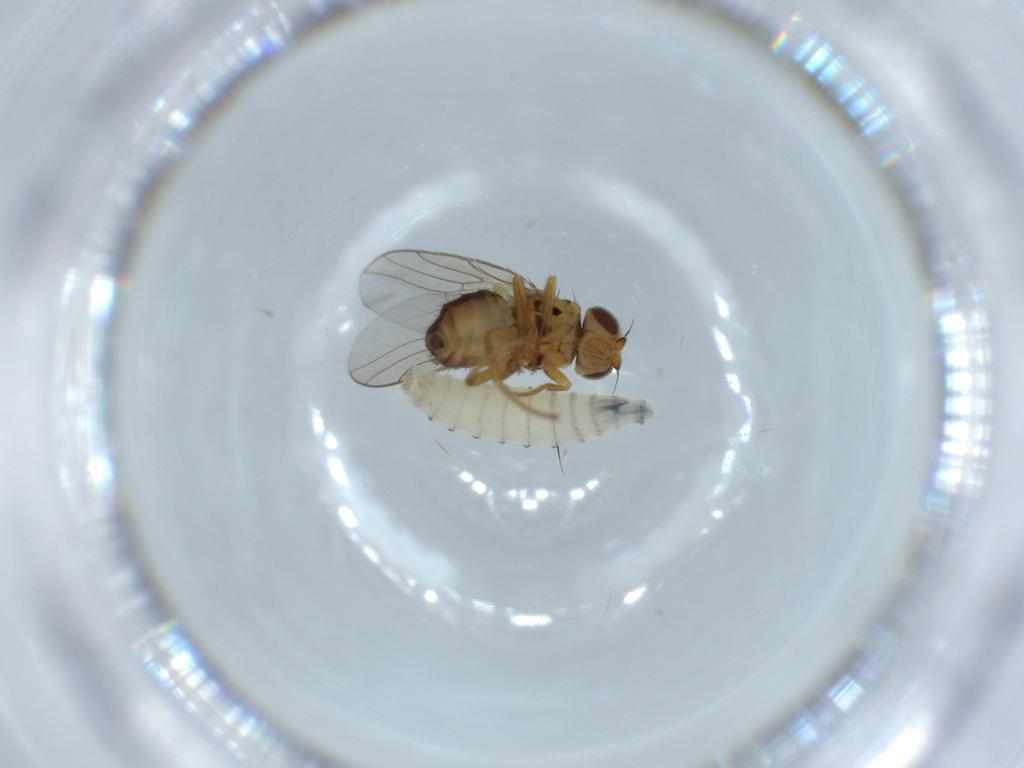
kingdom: Animalia
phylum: Arthropoda
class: Insecta
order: Diptera
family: Chloropidae
